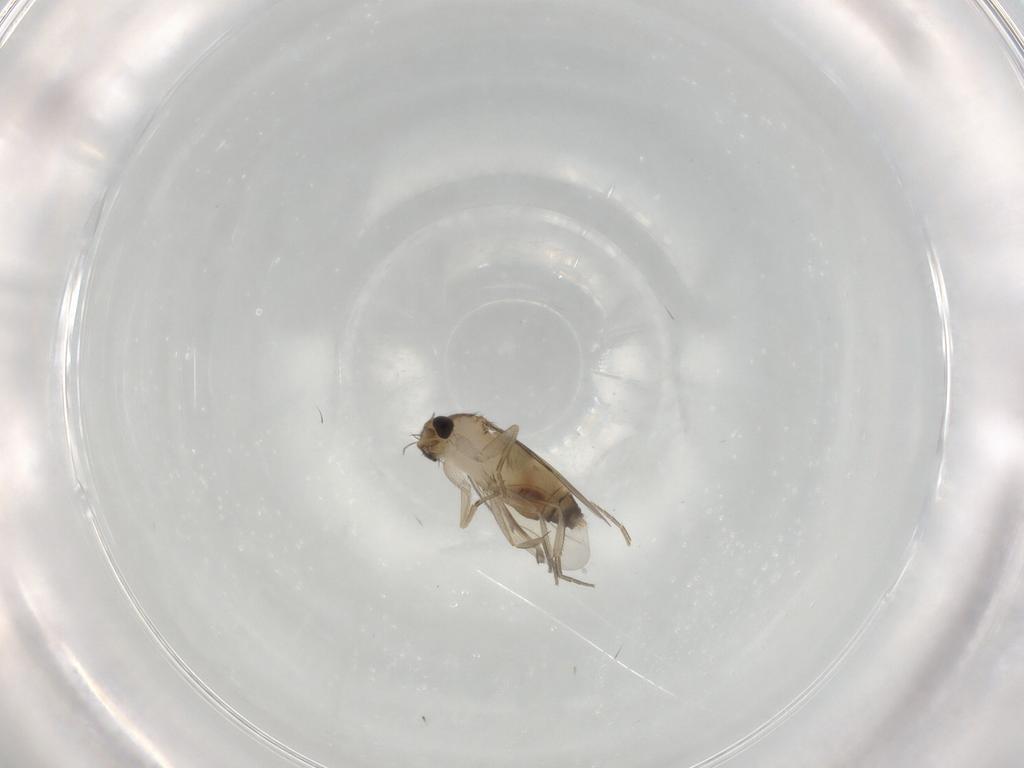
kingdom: Animalia
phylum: Arthropoda
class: Insecta
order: Diptera
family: Cecidomyiidae
